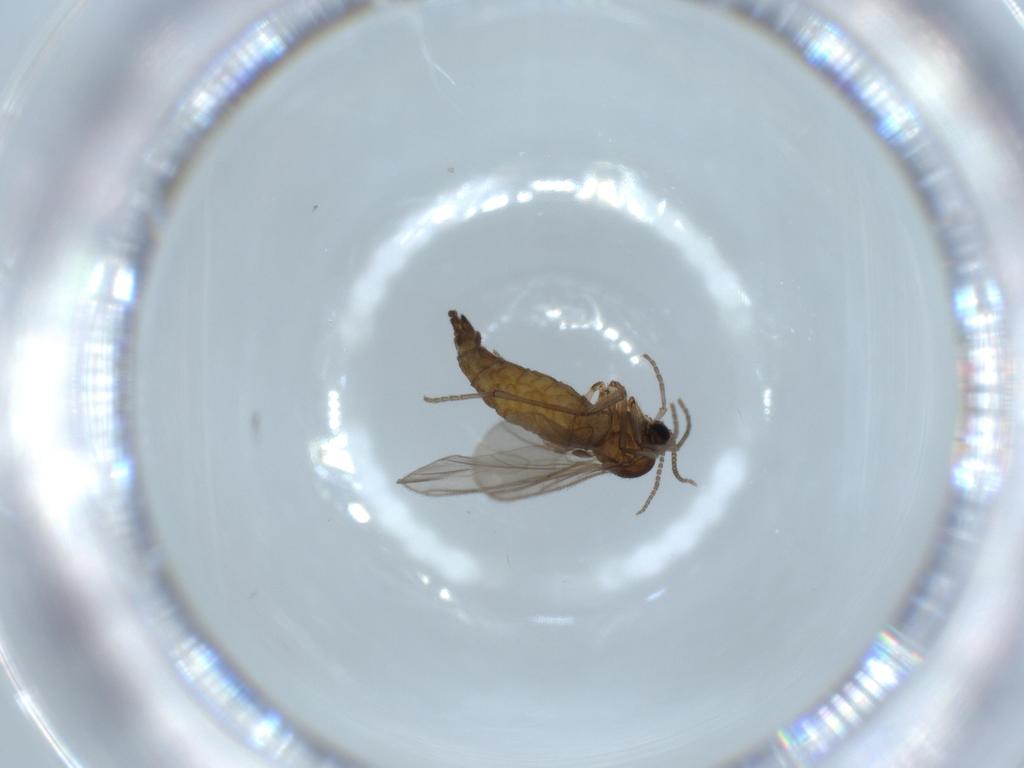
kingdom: Animalia
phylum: Arthropoda
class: Insecta
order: Diptera
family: Sciaridae
